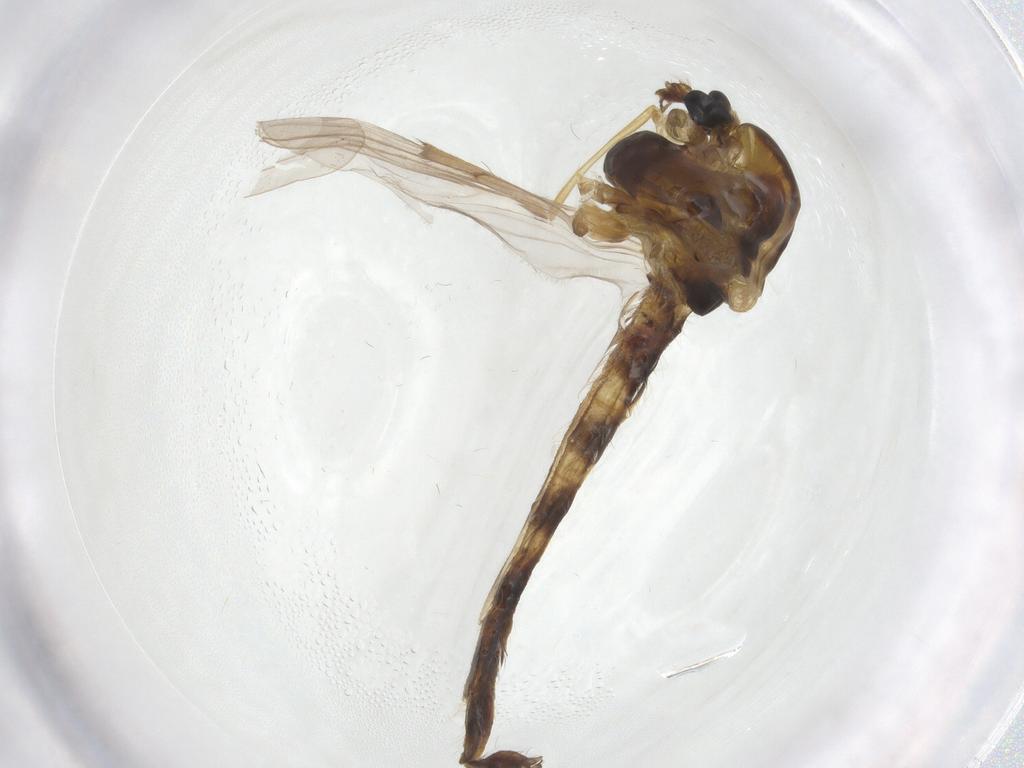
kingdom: Animalia
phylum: Arthropoda
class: Insecta
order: Diptera
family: Chironomidae
